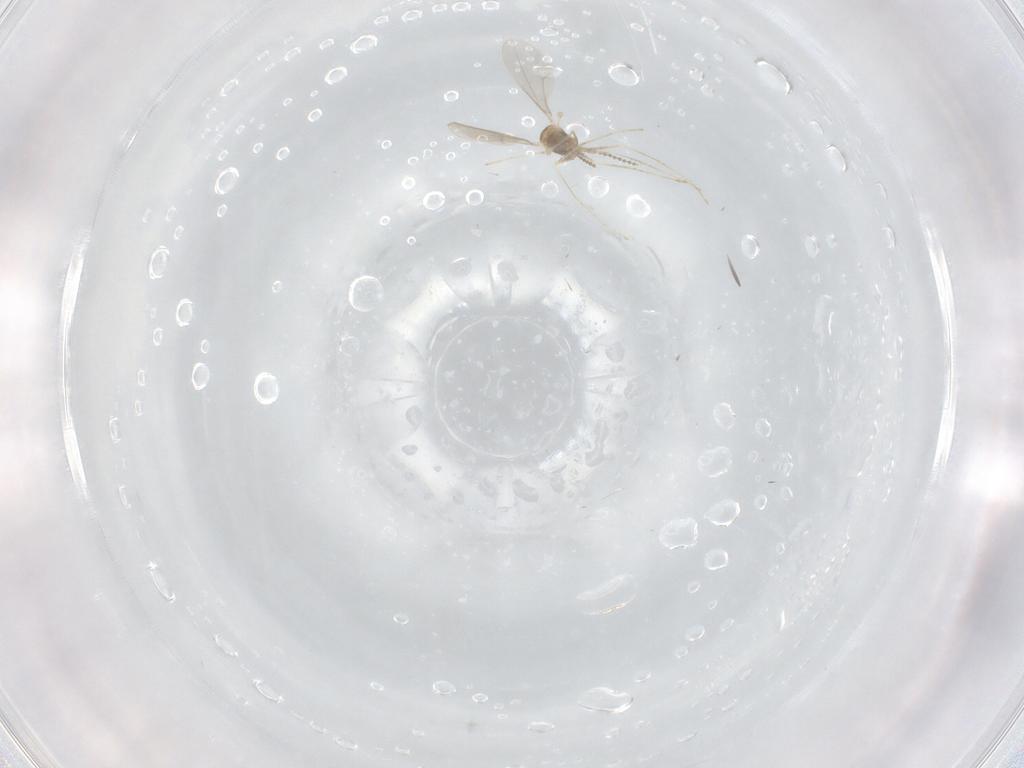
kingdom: Animalia
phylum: Arthropoda
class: Insecta
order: Diptera
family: Cecidomyiidae
